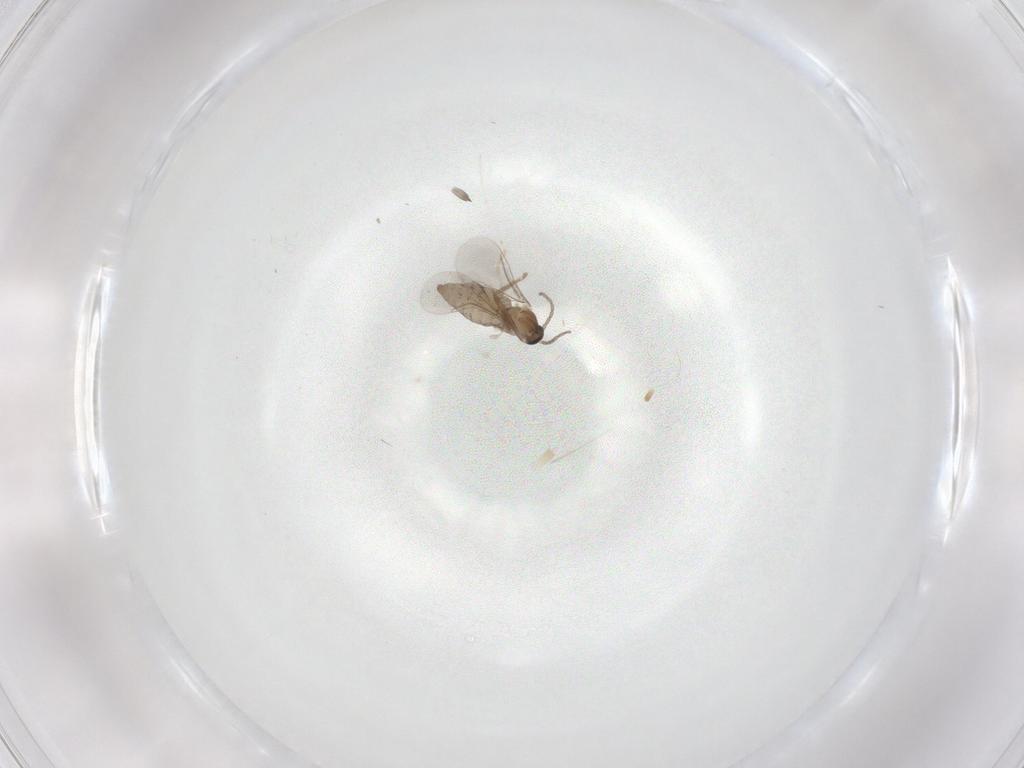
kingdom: Animalia
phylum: Arthropoda
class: Insecta
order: Diptera
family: Cecidomyiidae
